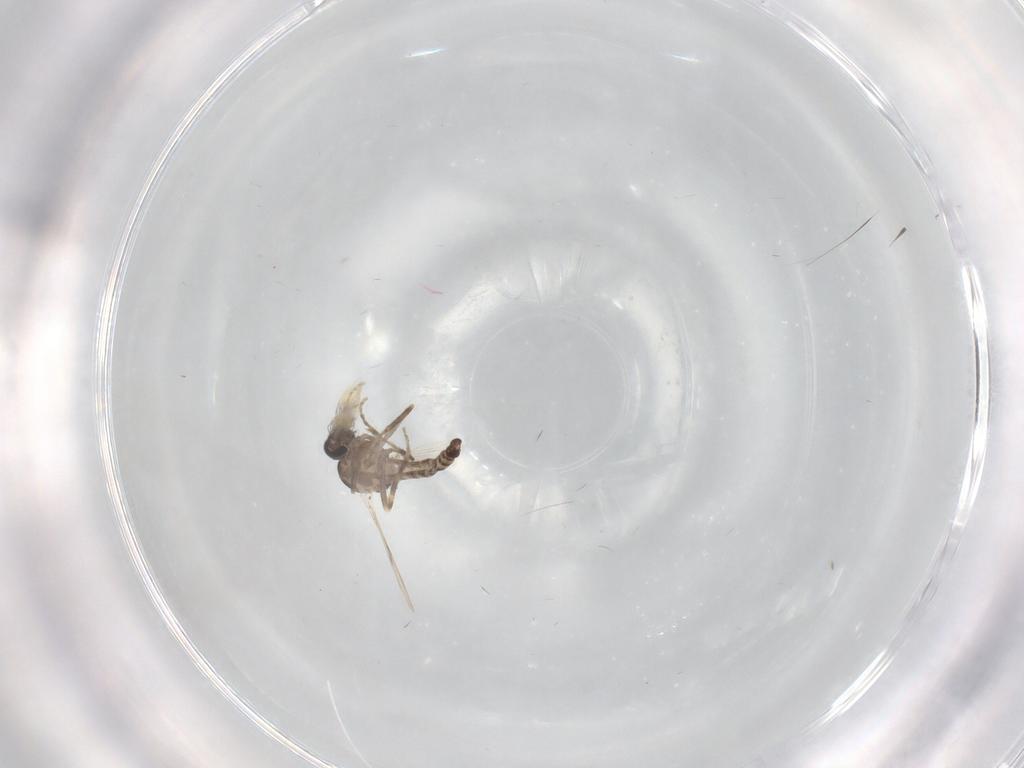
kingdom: Animalia
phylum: Arthropoda
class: Insecta
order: Diptera
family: Ceratopogonidae
